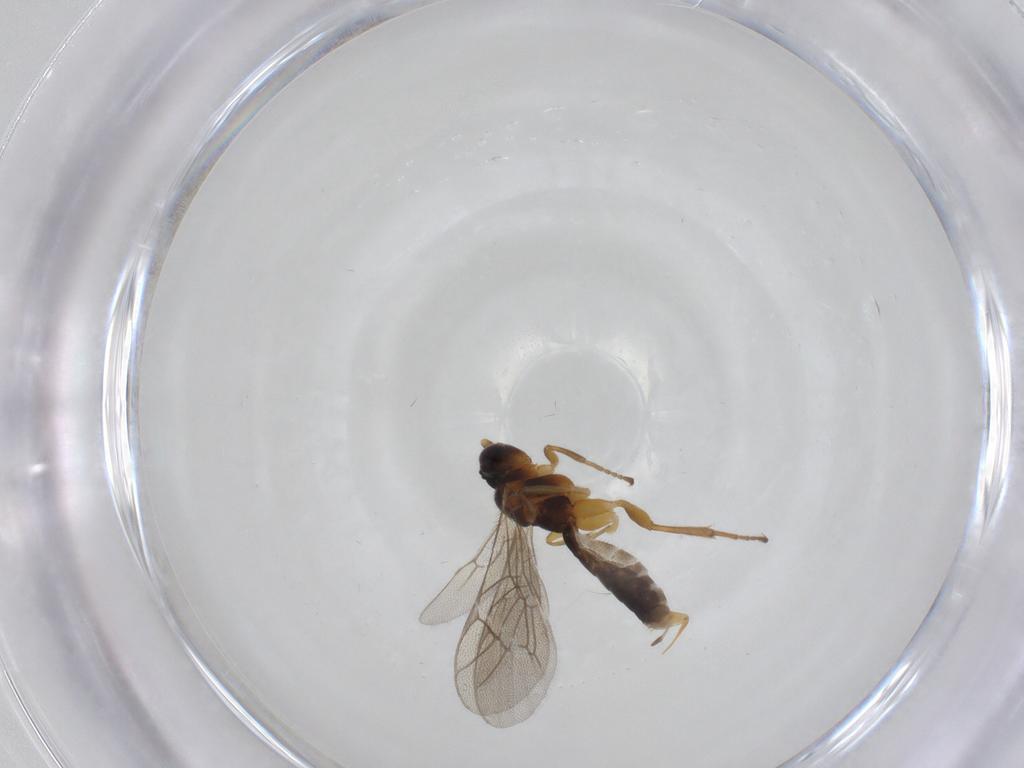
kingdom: Animalia
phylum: Arthropoda
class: Insecta
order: Hymenoptera
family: Ichneumonidae
